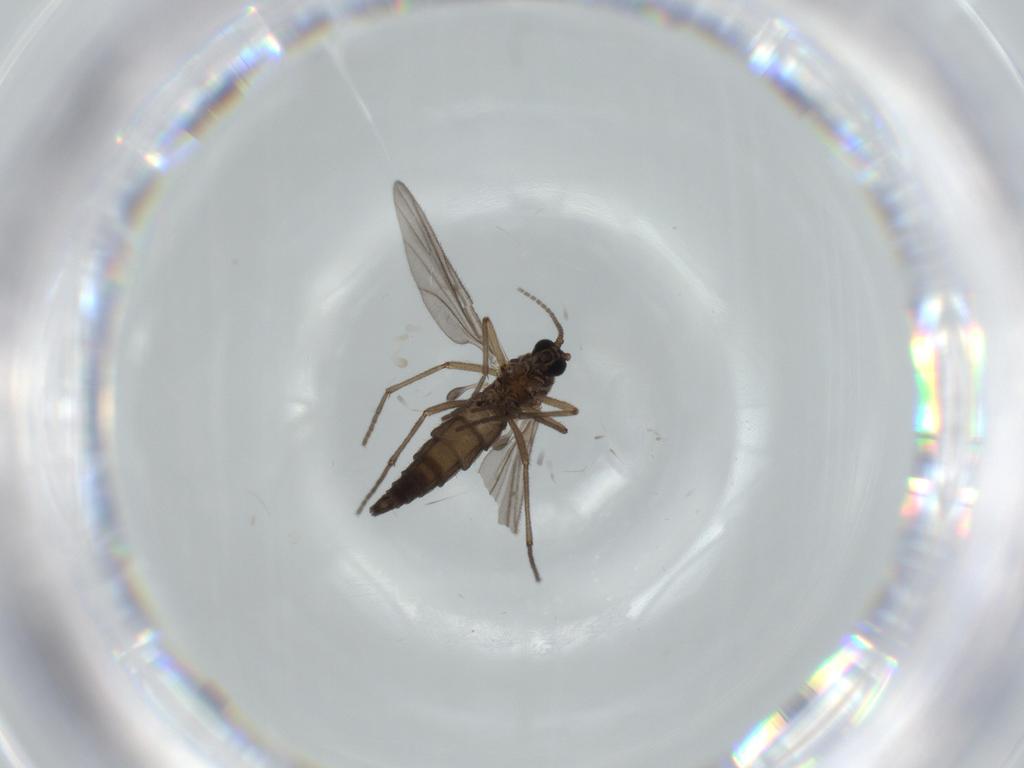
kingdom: Animalia
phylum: Arthropoda
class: Insecta
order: Diptera
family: Sciaridae
